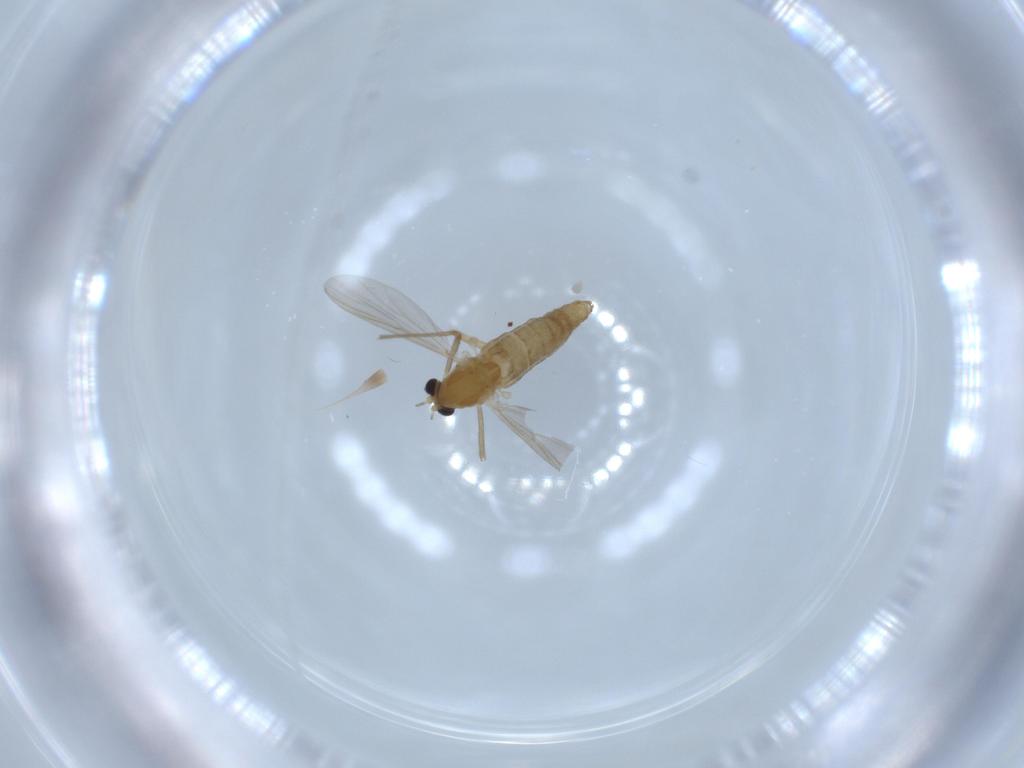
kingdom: Animalia
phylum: Arthropoda
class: Insecta
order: Diptera
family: Chironomidae
